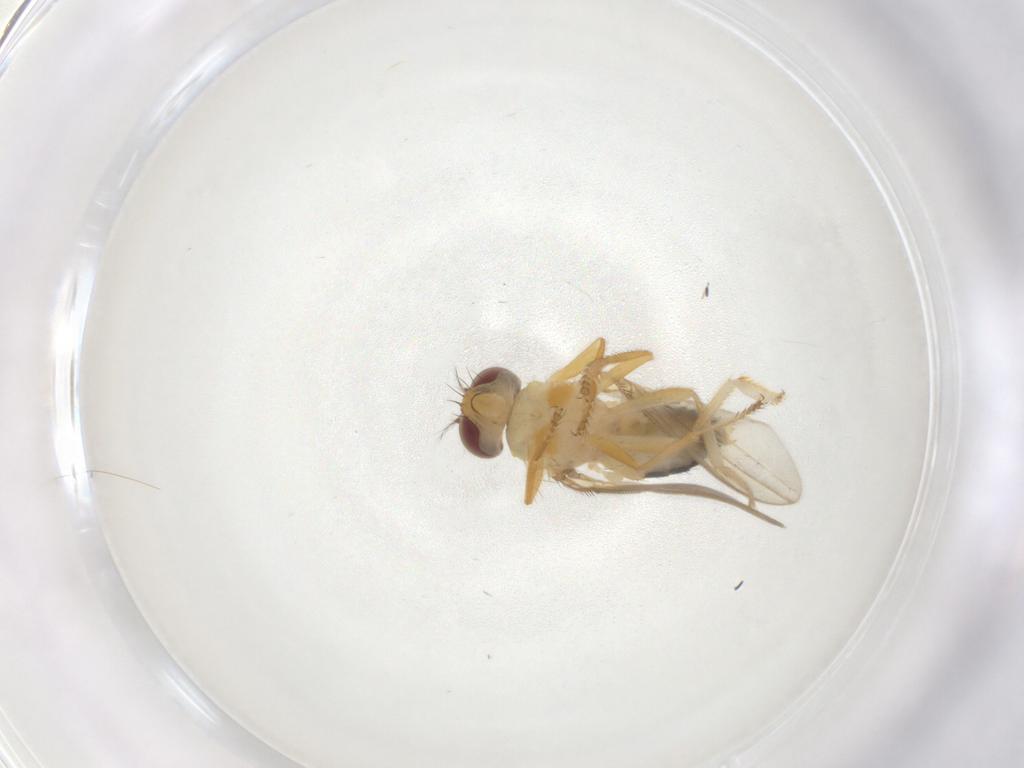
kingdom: Animalia
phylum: Arthropoda
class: Insecta
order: Diptera
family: Periscelididae
